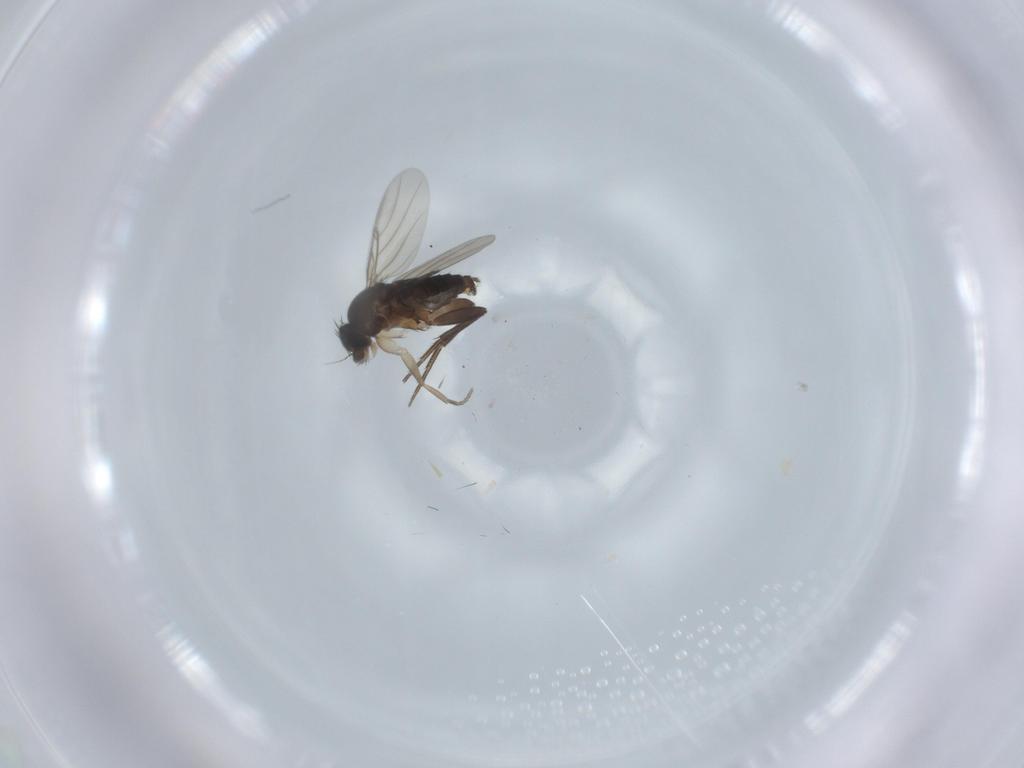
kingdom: Animalia
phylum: Arthropoda
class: Insecta
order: Diptera
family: Phoridae
